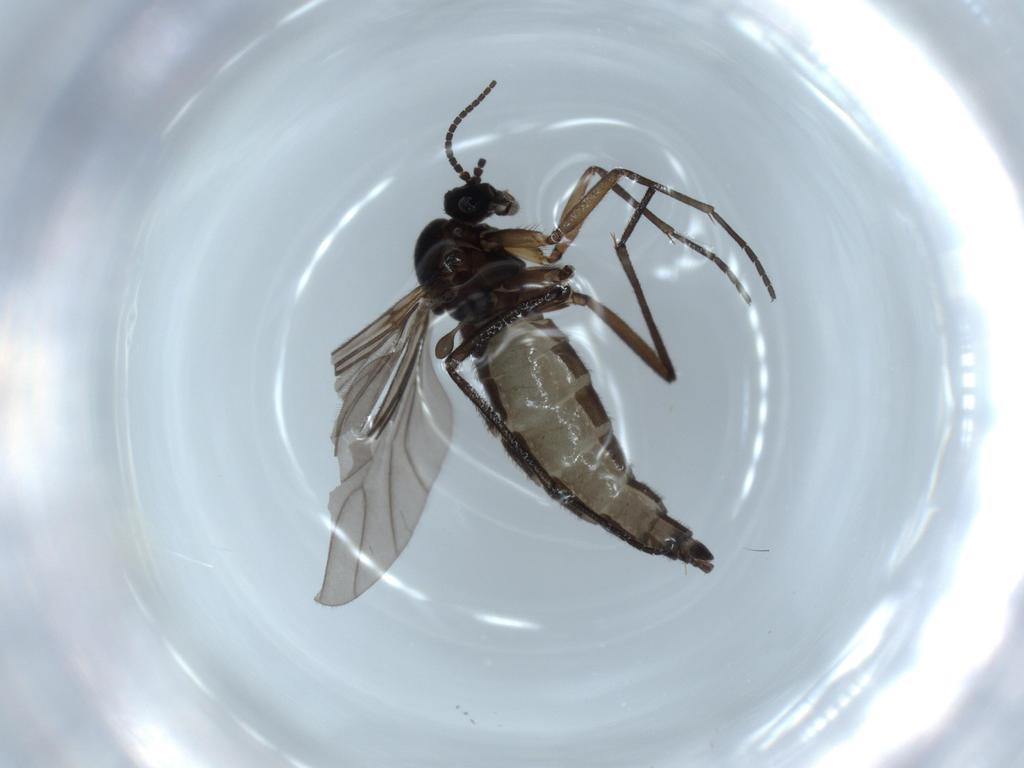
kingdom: Animalia
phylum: Arthropoda
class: Insecta
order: Diptera
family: Sciaridae
